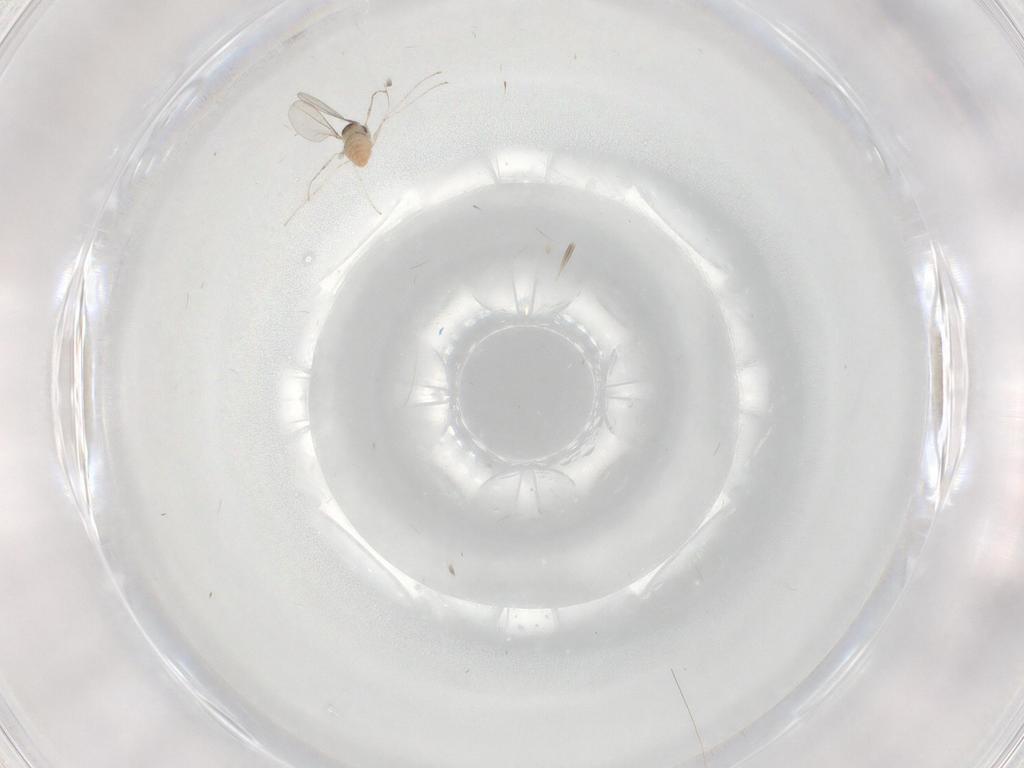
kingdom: Animalia
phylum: Arthropoda
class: Insecta
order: Diptera
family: Cecidomyiidae
